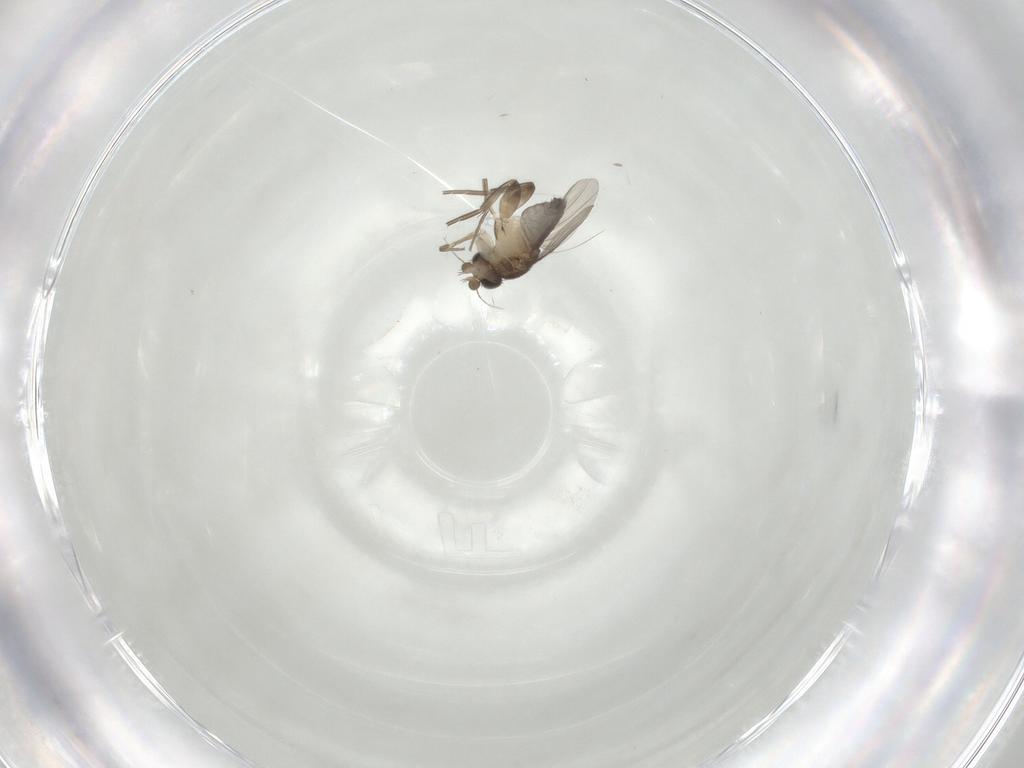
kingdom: Animalia
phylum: Arthropoda
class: Insecta
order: Diptera
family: Phoridae
